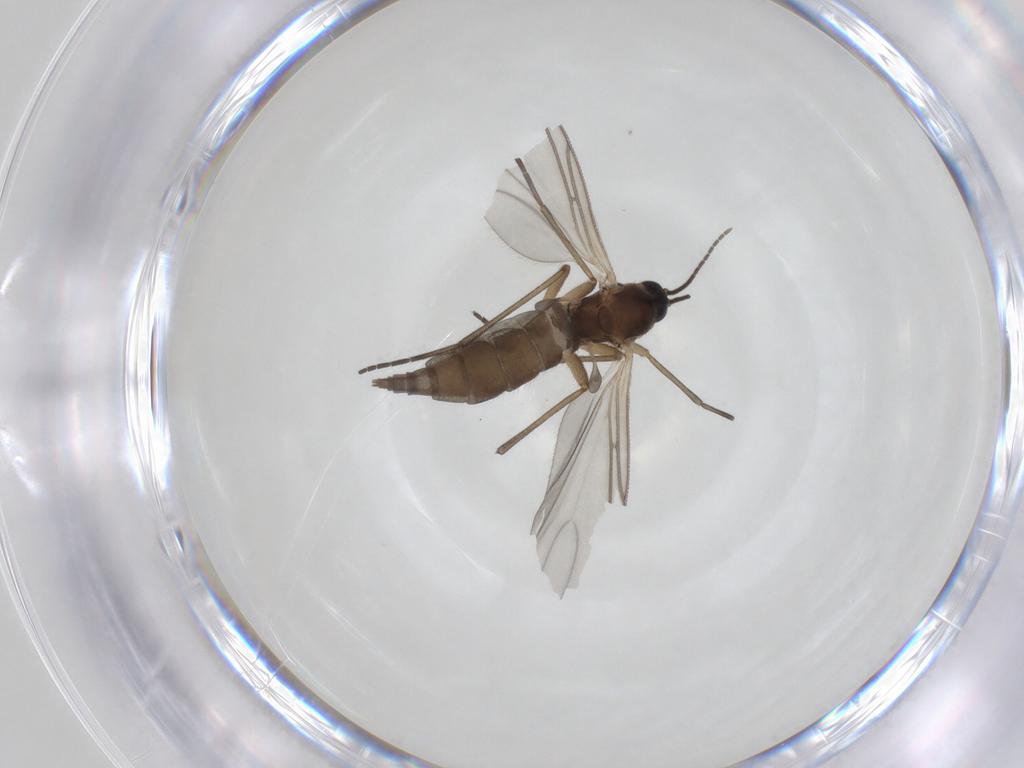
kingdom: Animalia
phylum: Arthropoda
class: Insecta
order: Diptera
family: Sciaridae
